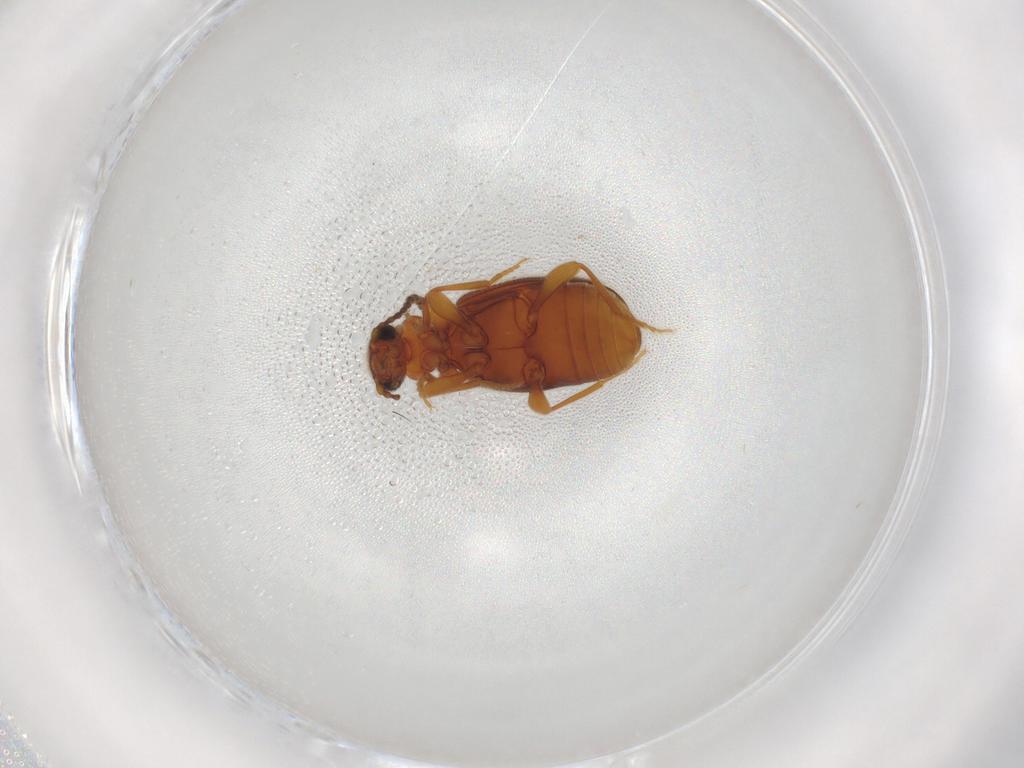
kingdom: Animalia
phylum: Arthropoda
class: Insecta
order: Coleoptera
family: Anthicidae
